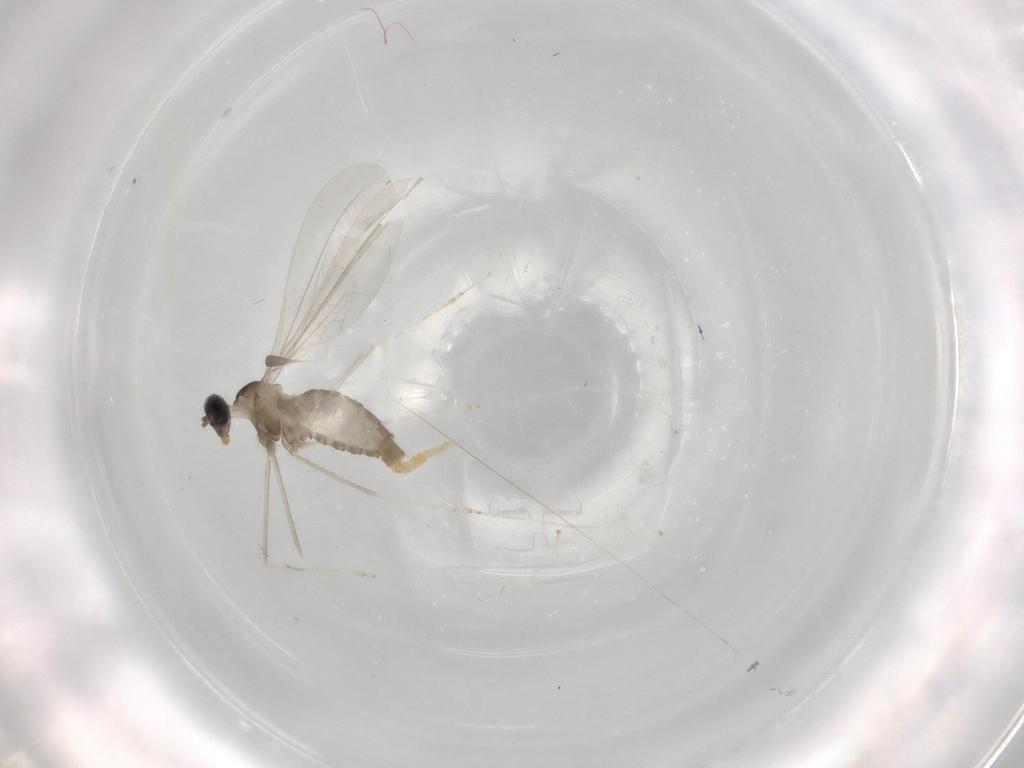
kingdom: Animalia
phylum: Arthropoda
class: Insecta
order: Diptera
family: Cecidomyiidae
